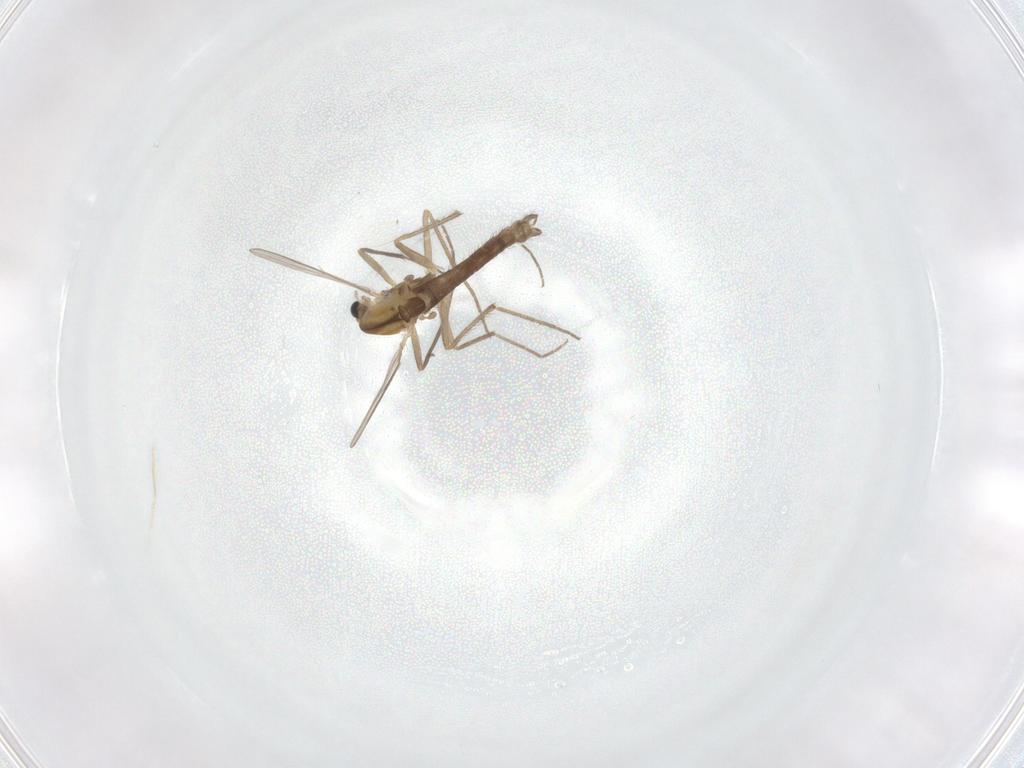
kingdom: Animalia
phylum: Arthropoda
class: Insecta
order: Diptera
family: Chironomidae
